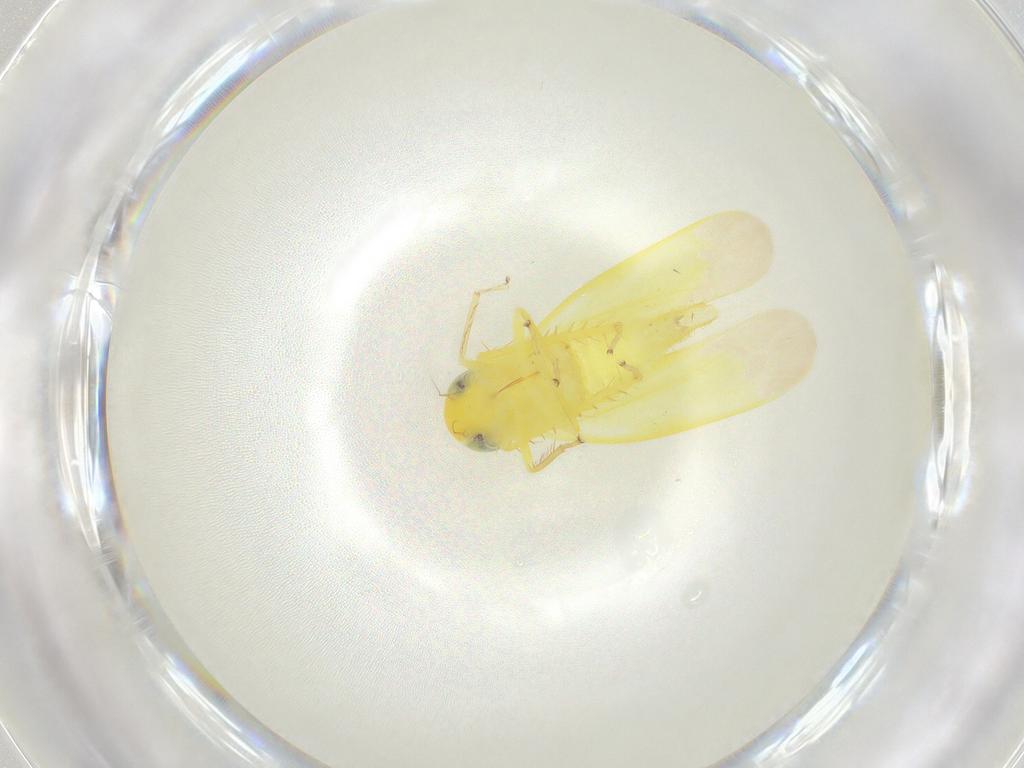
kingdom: Animalia
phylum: Arthropoda
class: Insecta
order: Hemiptera
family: Cicadellidae
